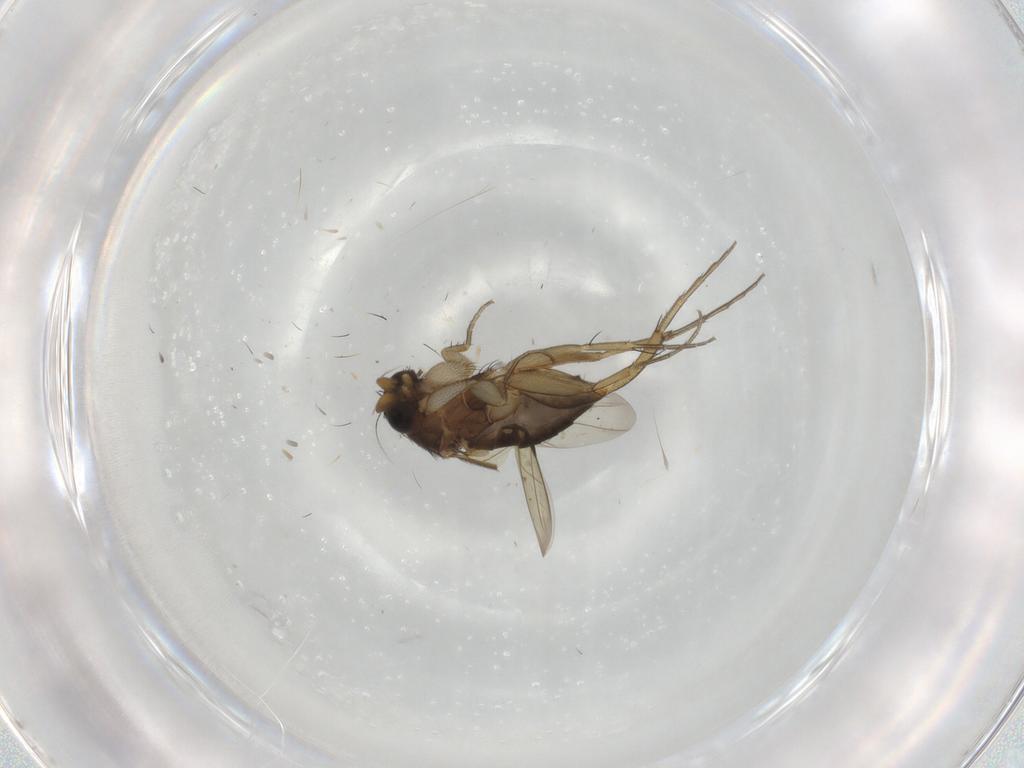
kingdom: Animalia
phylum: Arthropoda
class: Insecta
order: Diptera
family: Phoridae
